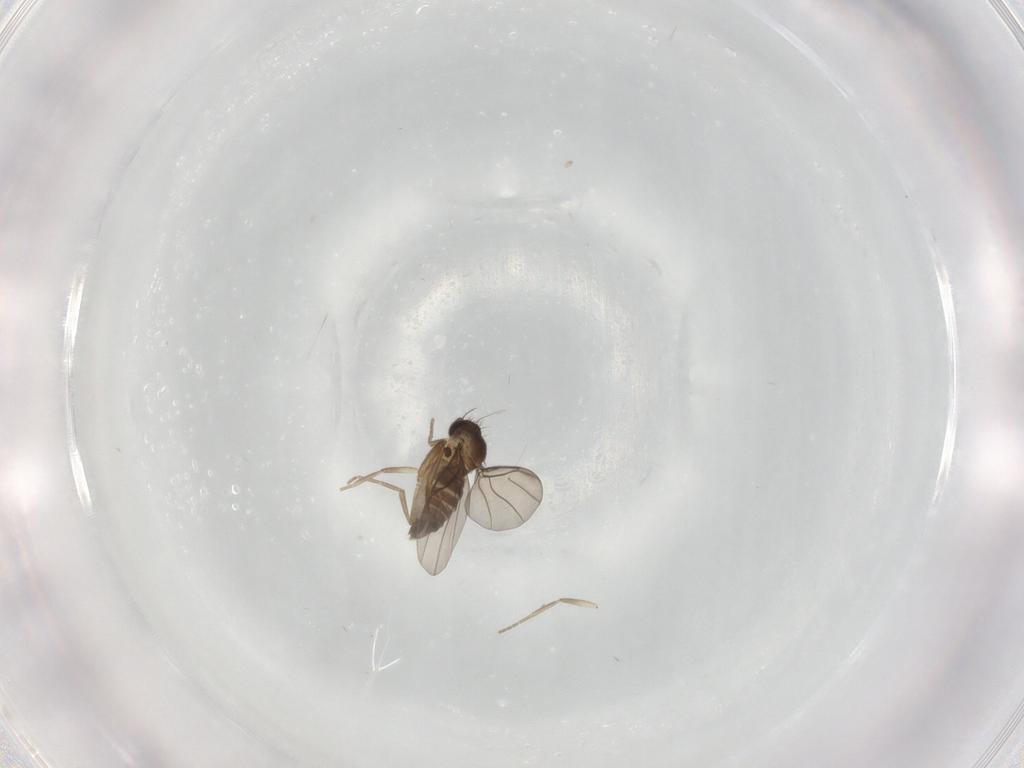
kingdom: Animalia
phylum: Arthropoda
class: Insecta
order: Diptera
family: Phoridae
